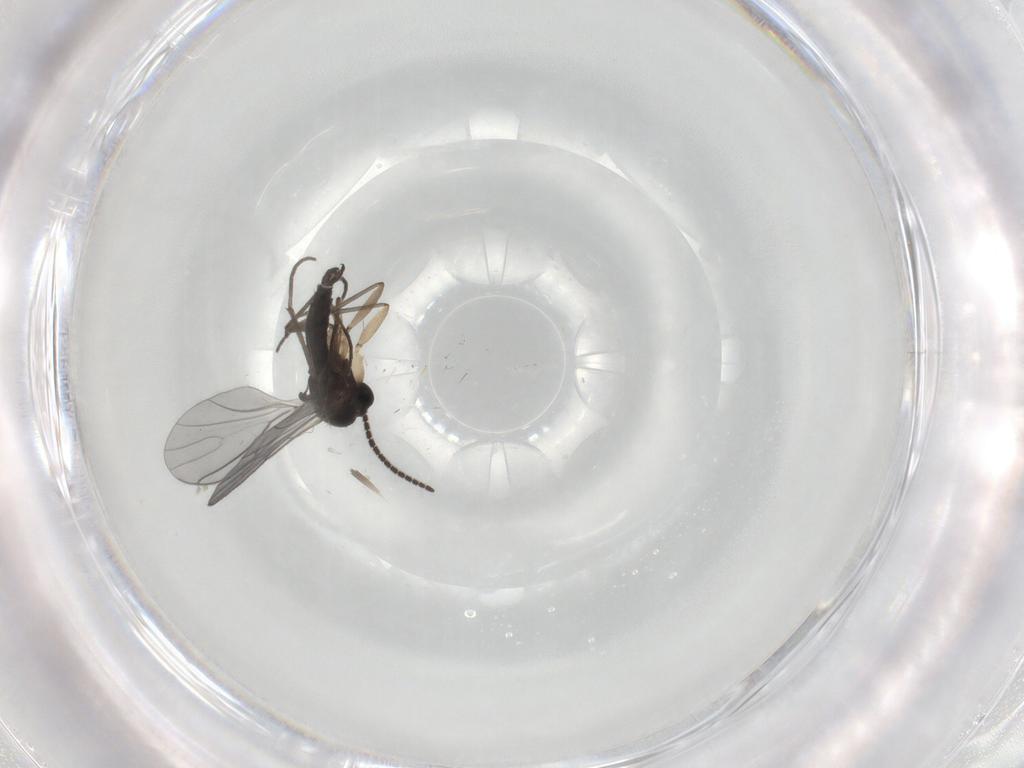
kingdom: Animalia
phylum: Arthropoda
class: Insecta
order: Diptera
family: Sciaridae
